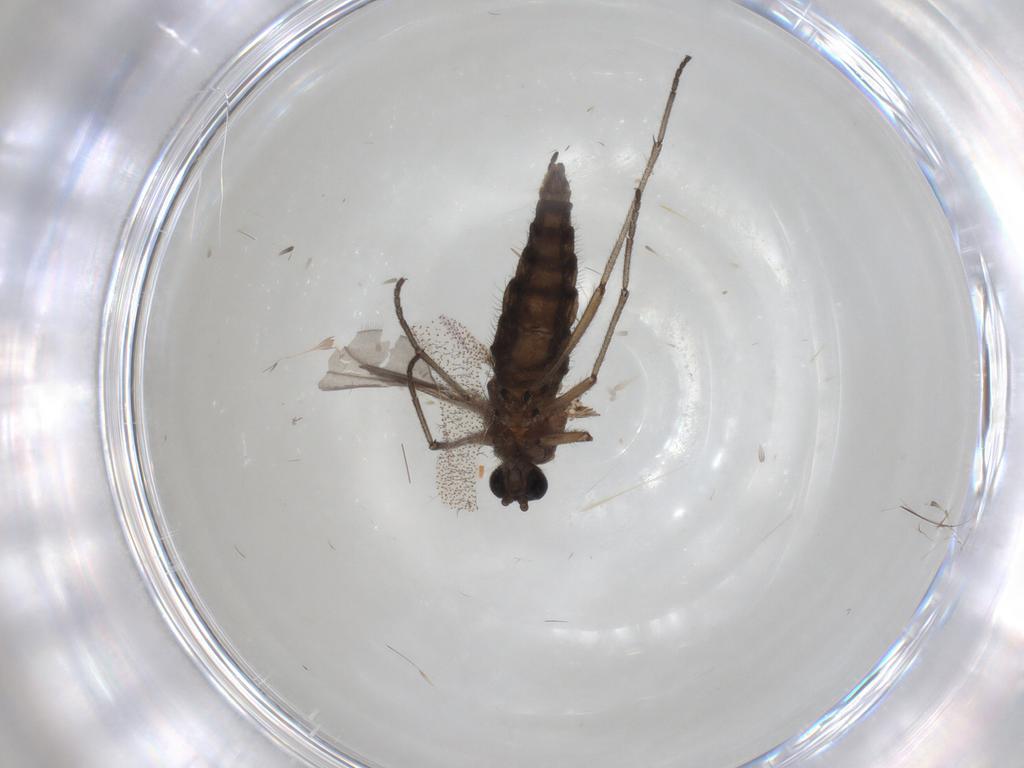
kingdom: Animalia
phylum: Arthropoda
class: Insecta
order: Diptera
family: Sciaridae
